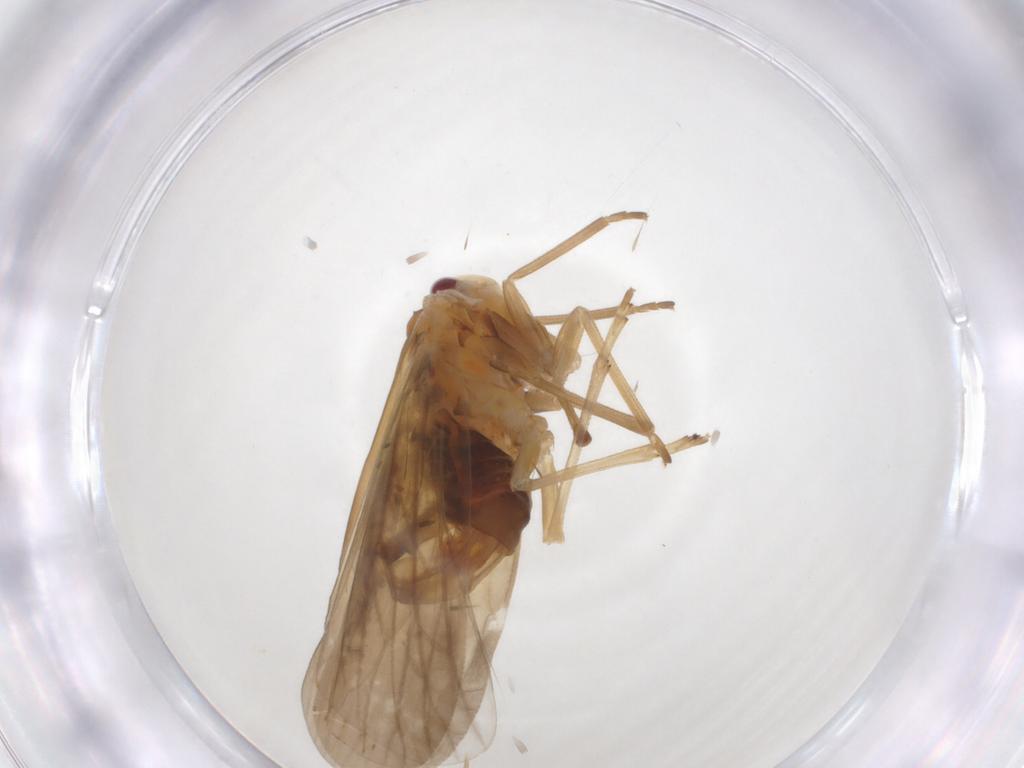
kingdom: Animalia
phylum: Arthropoda
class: Insecta
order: Hemiptera
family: Derbidae
